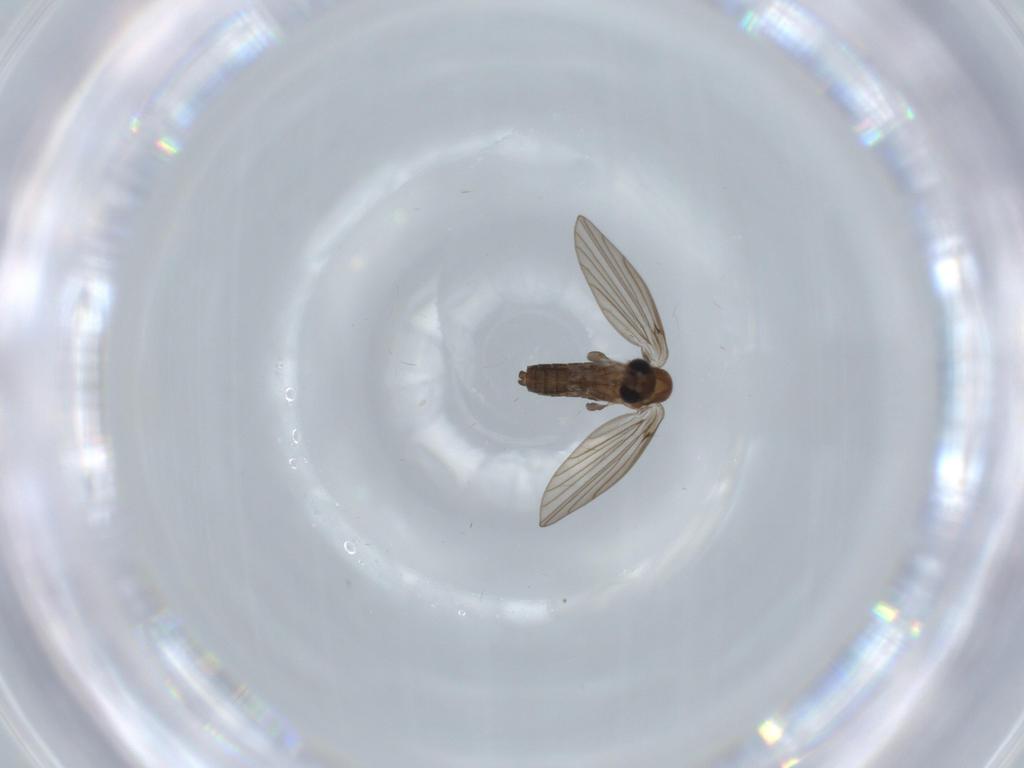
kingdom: Animalia
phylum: Arthropoda
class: Insecta
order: Diptera
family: Psychodidae
